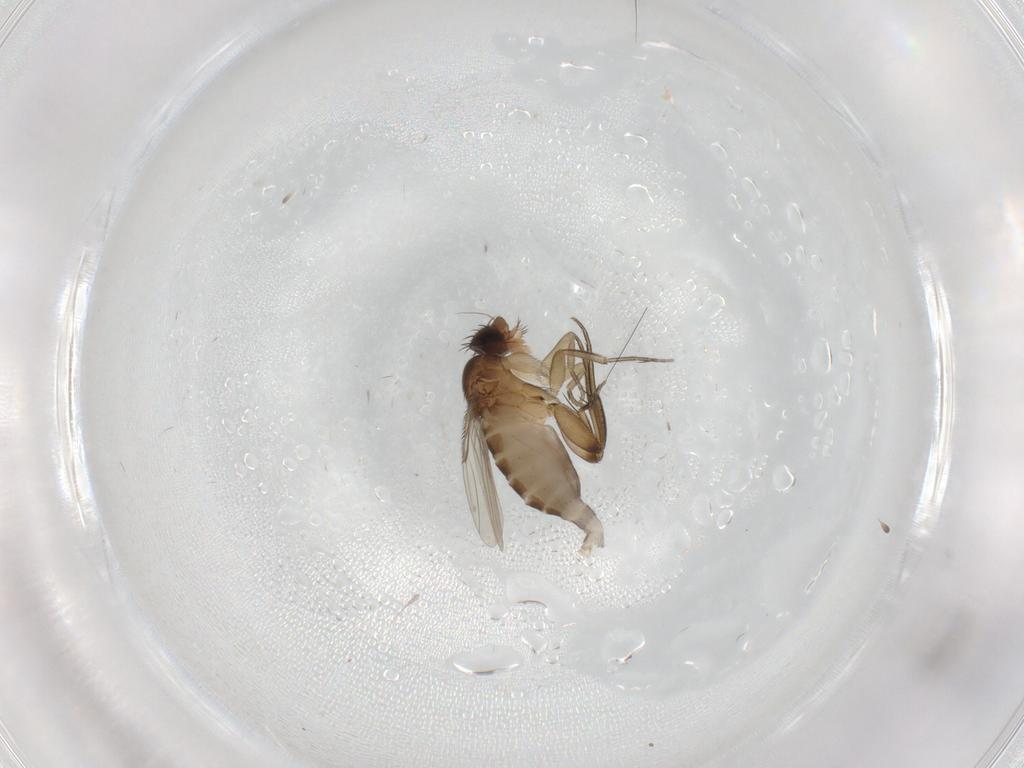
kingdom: Animalia
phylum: Arthropoda
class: Insecta
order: Diptera
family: Phoridae
